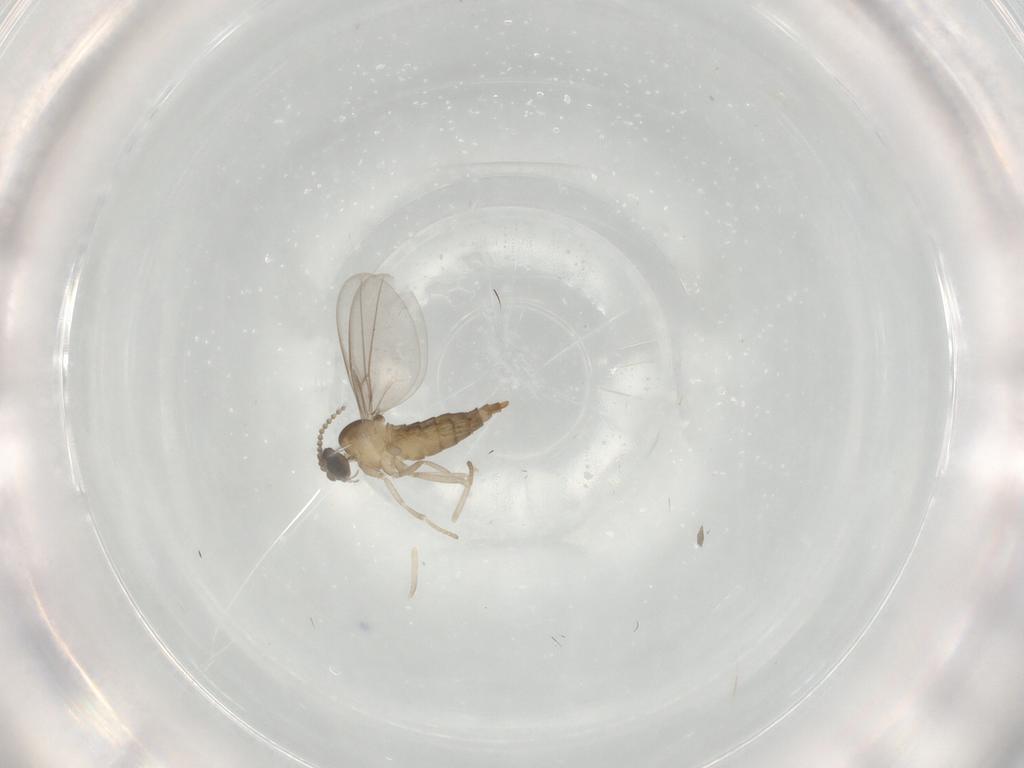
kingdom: Animalia
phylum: Arthropoda
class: Insecta
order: Diptera
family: Cecidomyiidae
